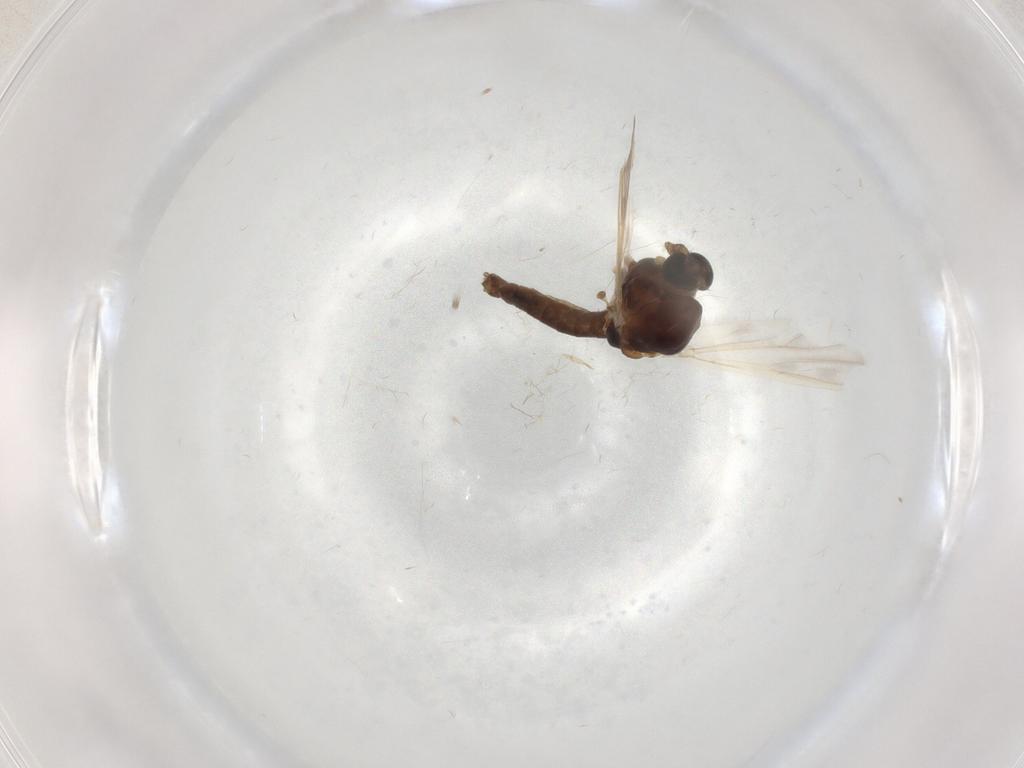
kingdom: Animalia
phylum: Arthropoda
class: Insecta
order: Diptera
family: Chironomidae
